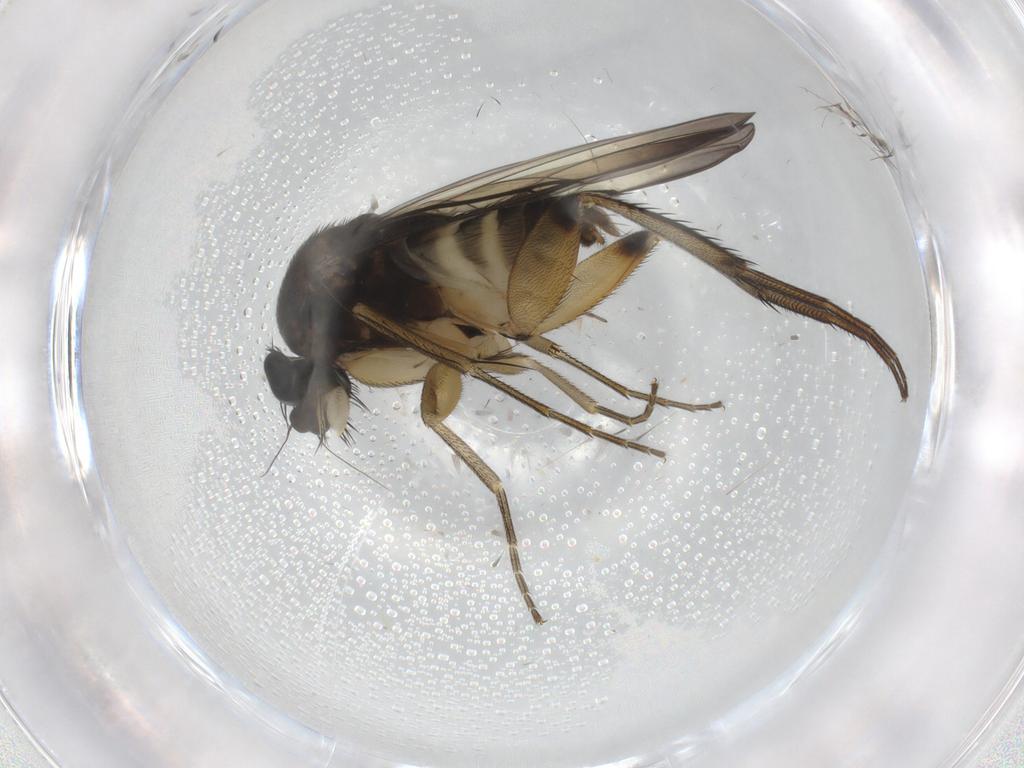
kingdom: Animalia
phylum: Arthropoda
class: Insecta
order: Diptera
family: Phoridae
